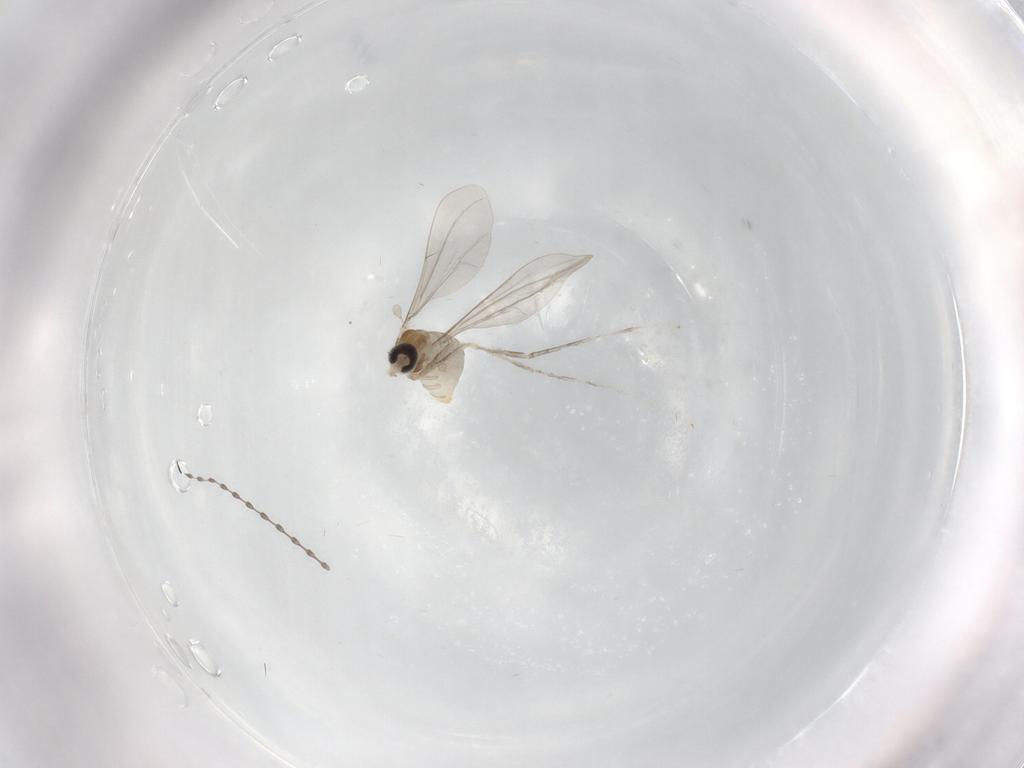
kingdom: Animalia
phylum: Arthropoda
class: Insecta
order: Diptera
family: Cecidomyiidae
